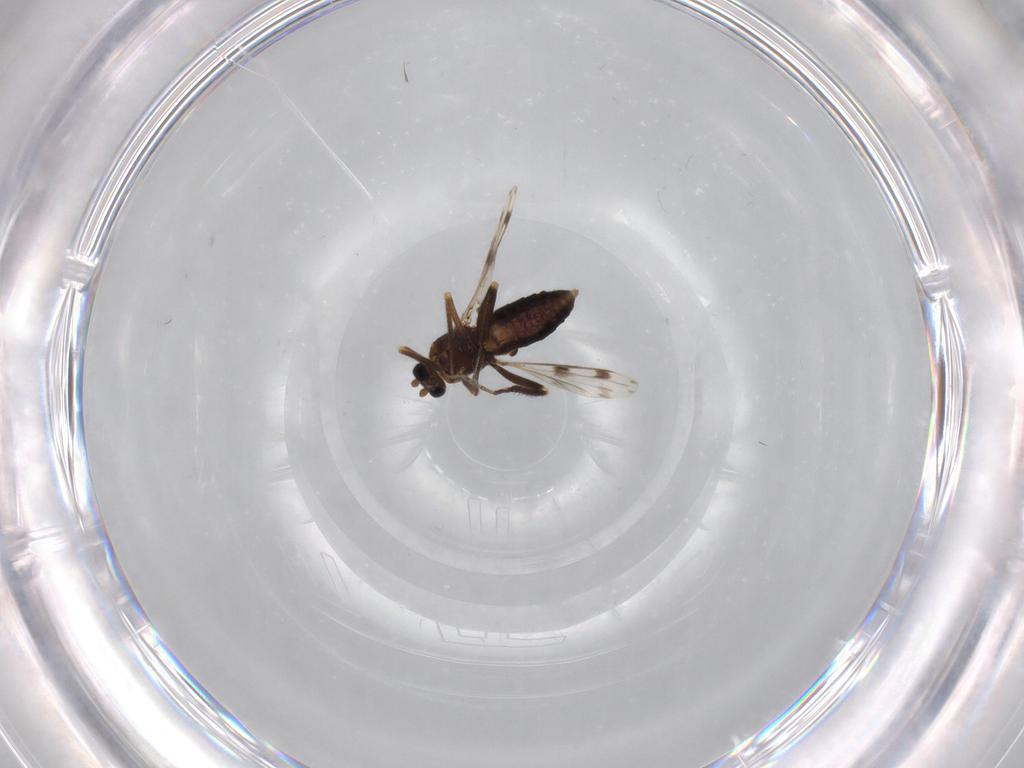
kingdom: Animalia
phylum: Arthropoda
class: Insecta
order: Diptera
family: Ceratopogonidae
